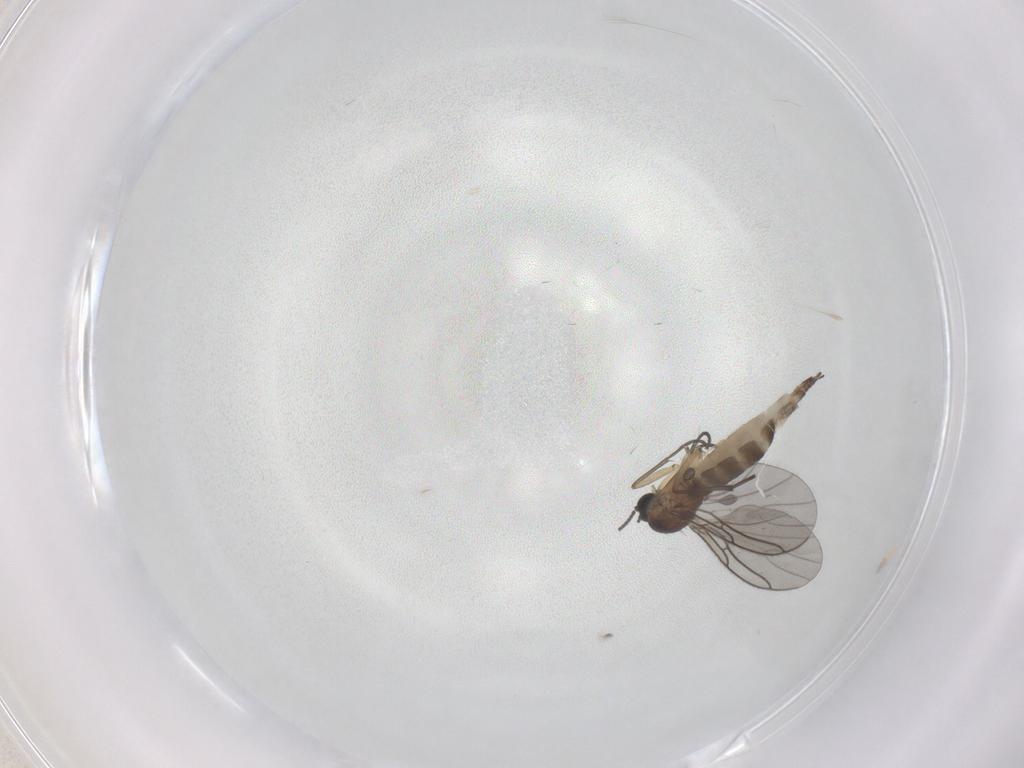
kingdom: Animalia
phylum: Arthropoda
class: Insecta
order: Diptera
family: Sciaridae
